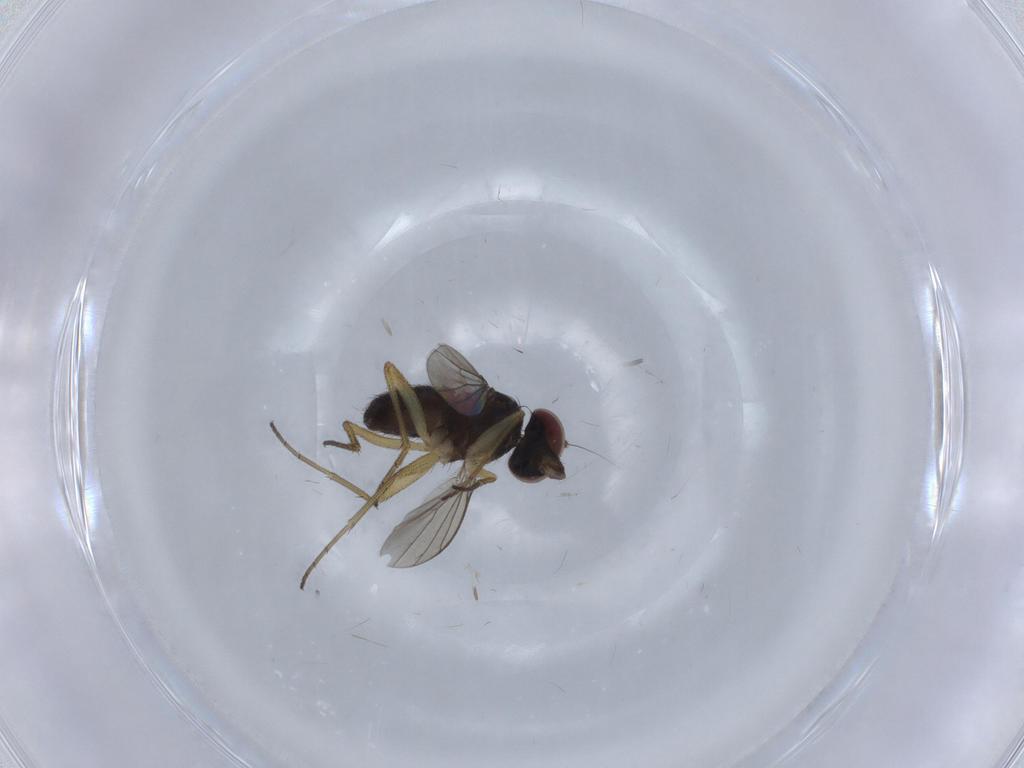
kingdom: Animalia
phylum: Arthropoda
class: Insecta
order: Diptera
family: Dolichopodidae
